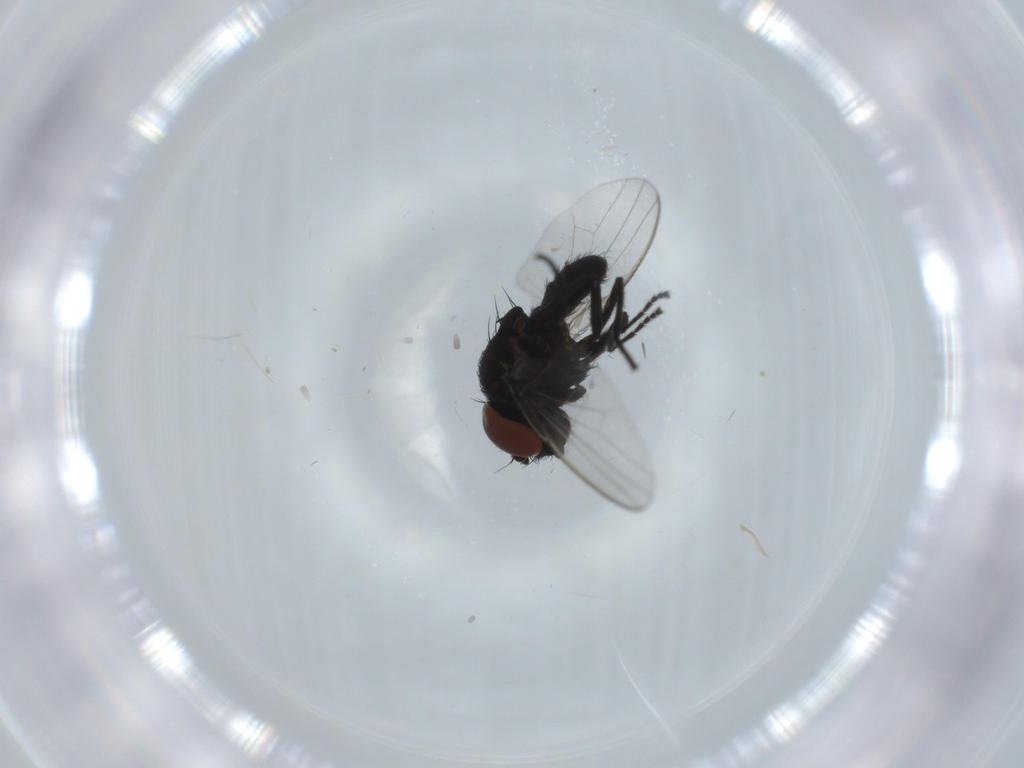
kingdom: Animalia
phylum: Arthropoda
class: Insecta
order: Diptera
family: Milichiidae
